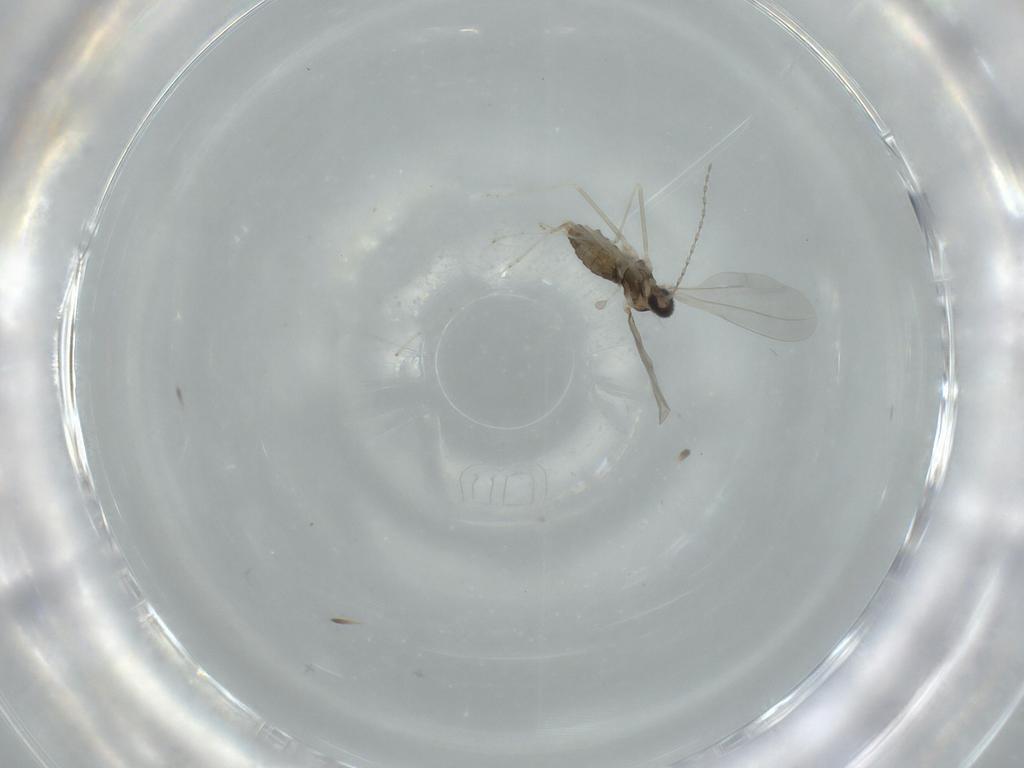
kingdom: Animalia
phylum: Arthropoda
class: Insecta
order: Diptera
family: Cecidomyiidae
